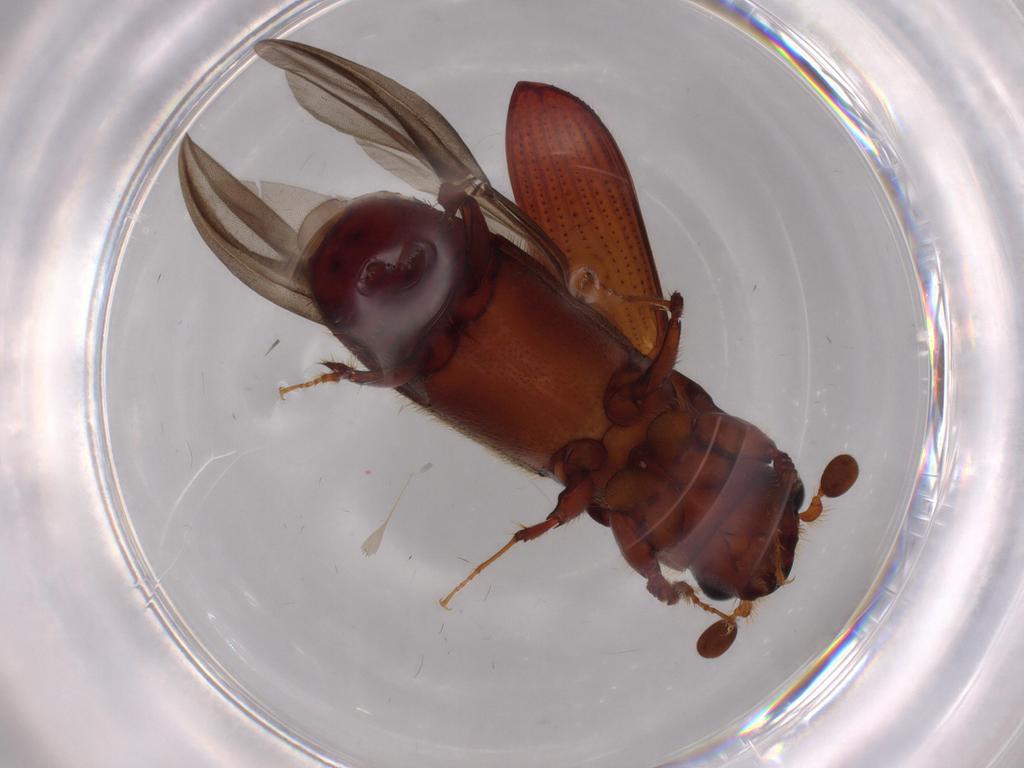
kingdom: Animalia
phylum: Arthropoda
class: Insecta
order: Coleoptera
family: Curculionidae
